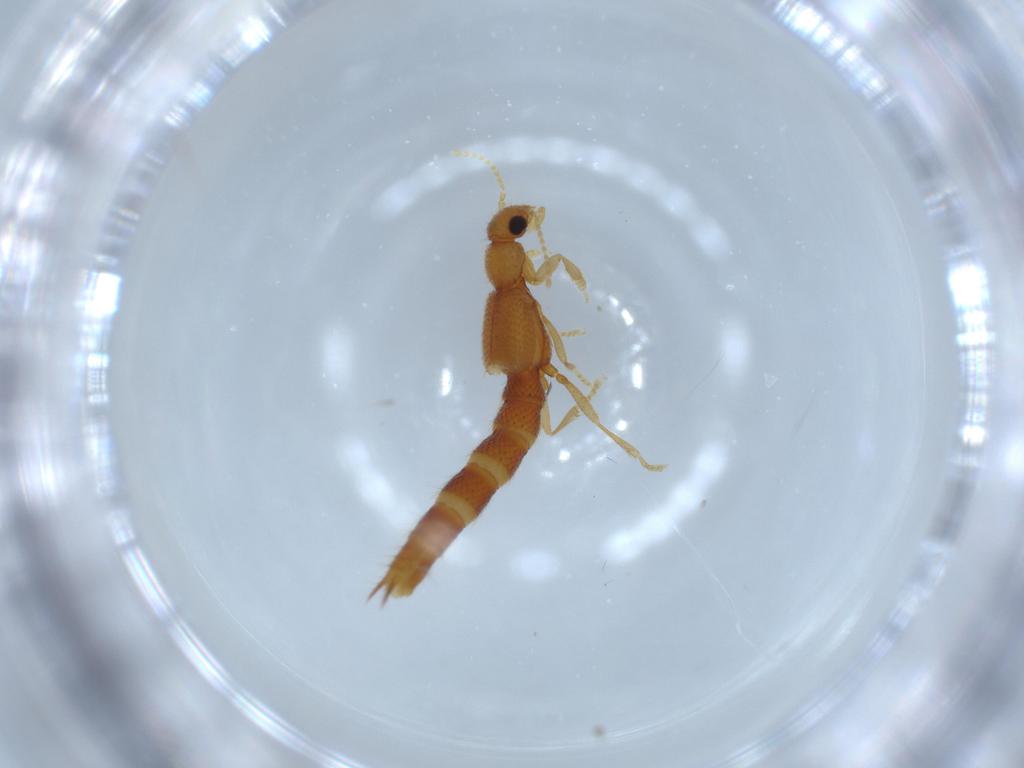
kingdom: Animalia
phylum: Arthropoda
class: Insecta
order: Coleoptera
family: Staphylinidae
